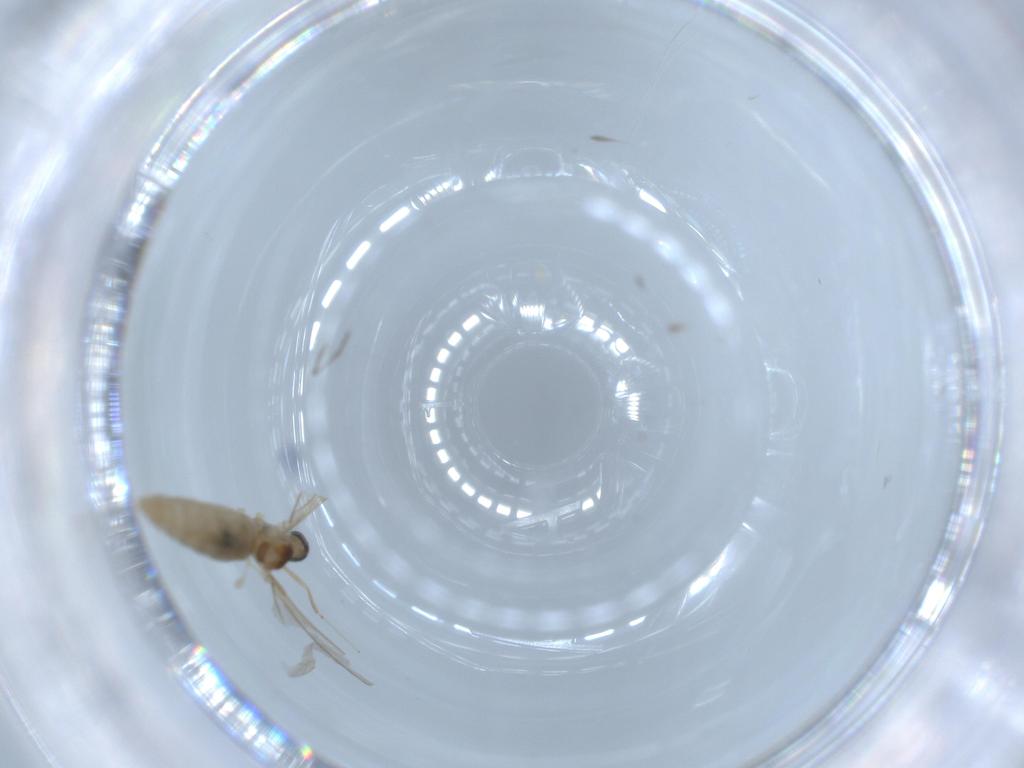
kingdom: Animalia
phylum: Arthropoda
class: Insecta
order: Diptera
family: Cecidomyiidae
